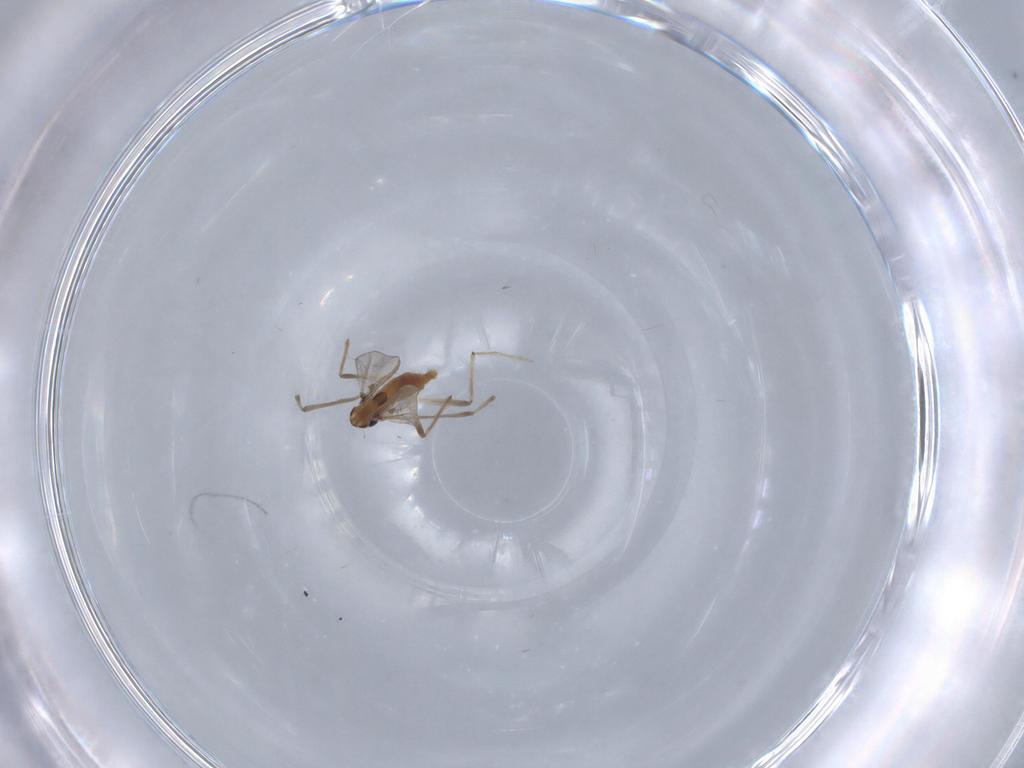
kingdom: Animalia
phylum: Arthropoda
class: Insecta
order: Diptera
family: Chironomidae
